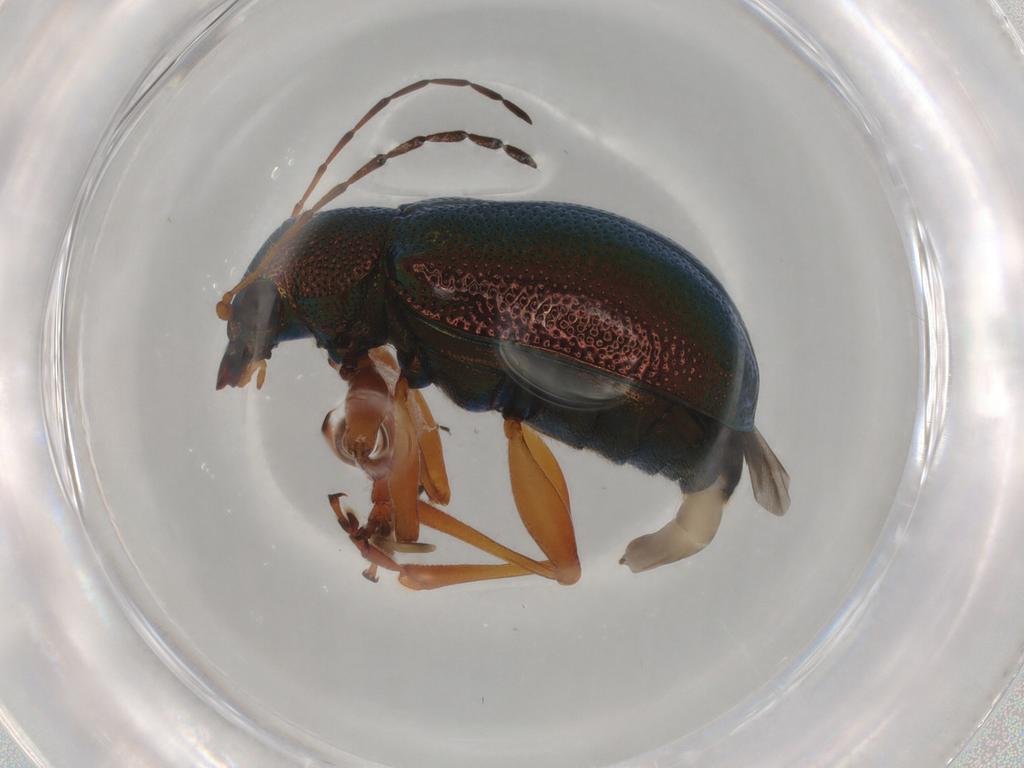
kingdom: Animalia
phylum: Arthropoda
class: Insecta
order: Coleoptera
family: Chrysomelidae
